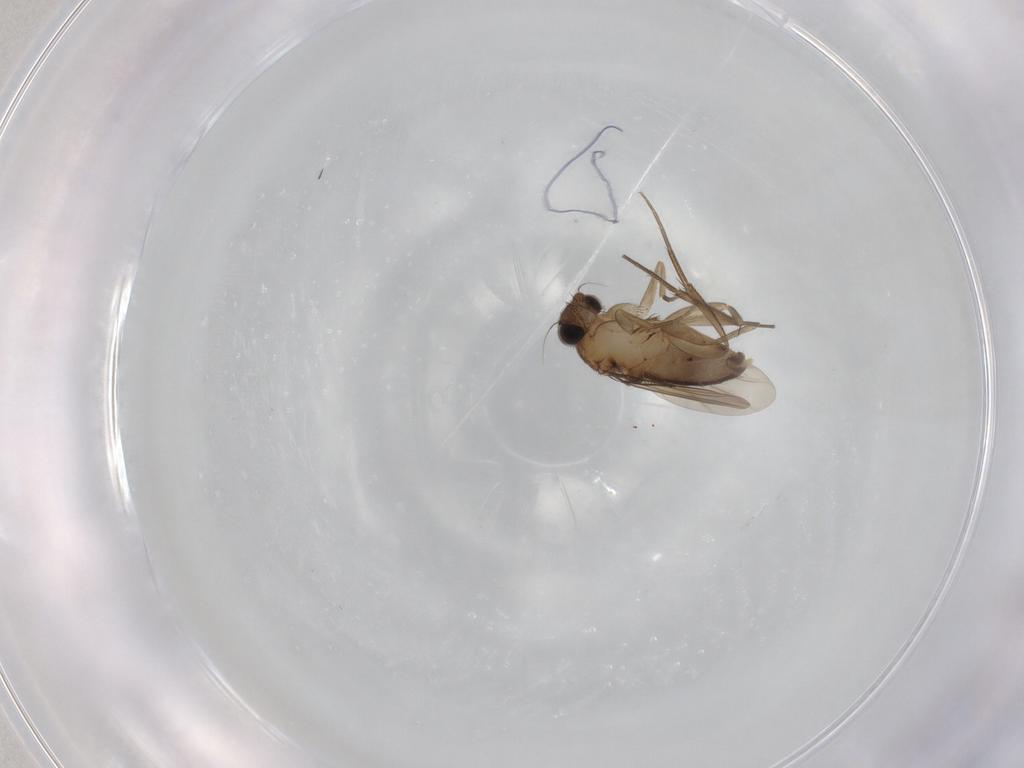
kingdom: Animalia
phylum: Arthropoda
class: Insecta
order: Diptera
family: Phoridae
